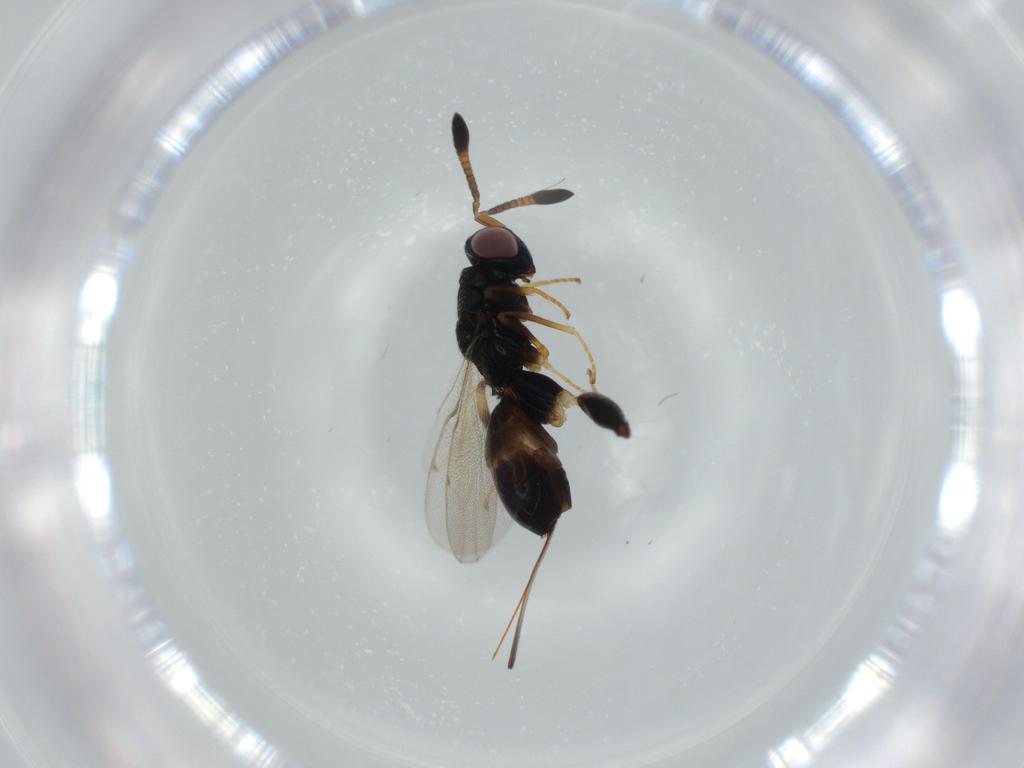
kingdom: Animalia
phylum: Arthropoda
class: Insecta
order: Hymenoptera
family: Torymidae
